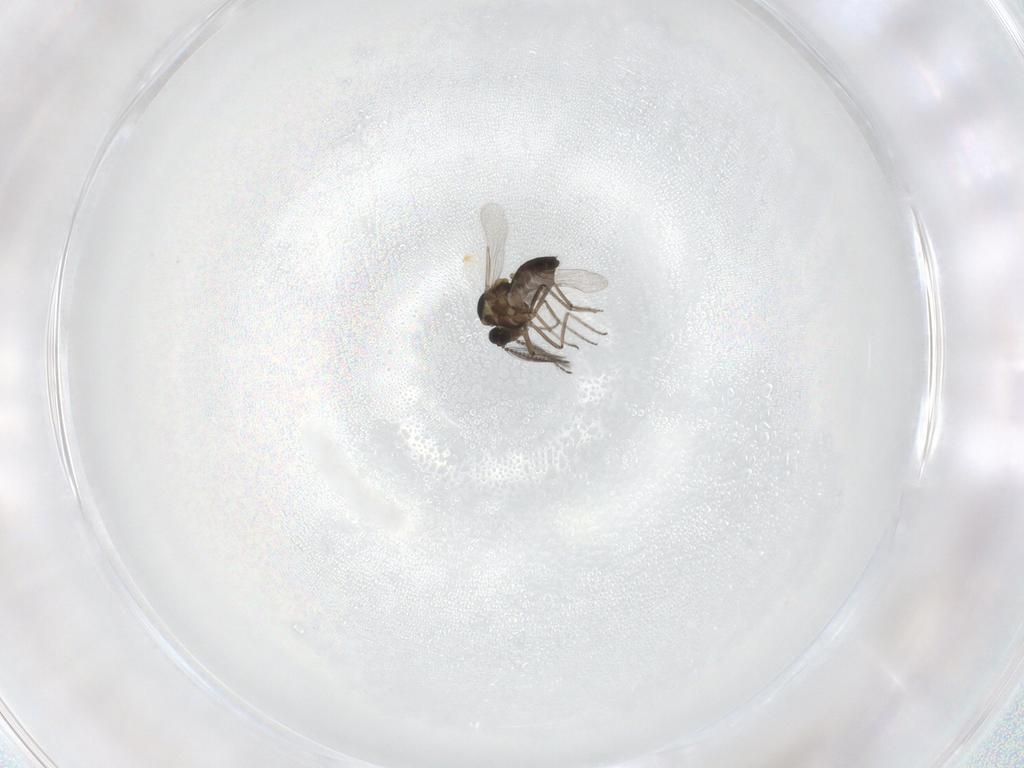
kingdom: Animalia
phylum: Arthropoda
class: Insecta
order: Diptera
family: Ceratopogonidae
